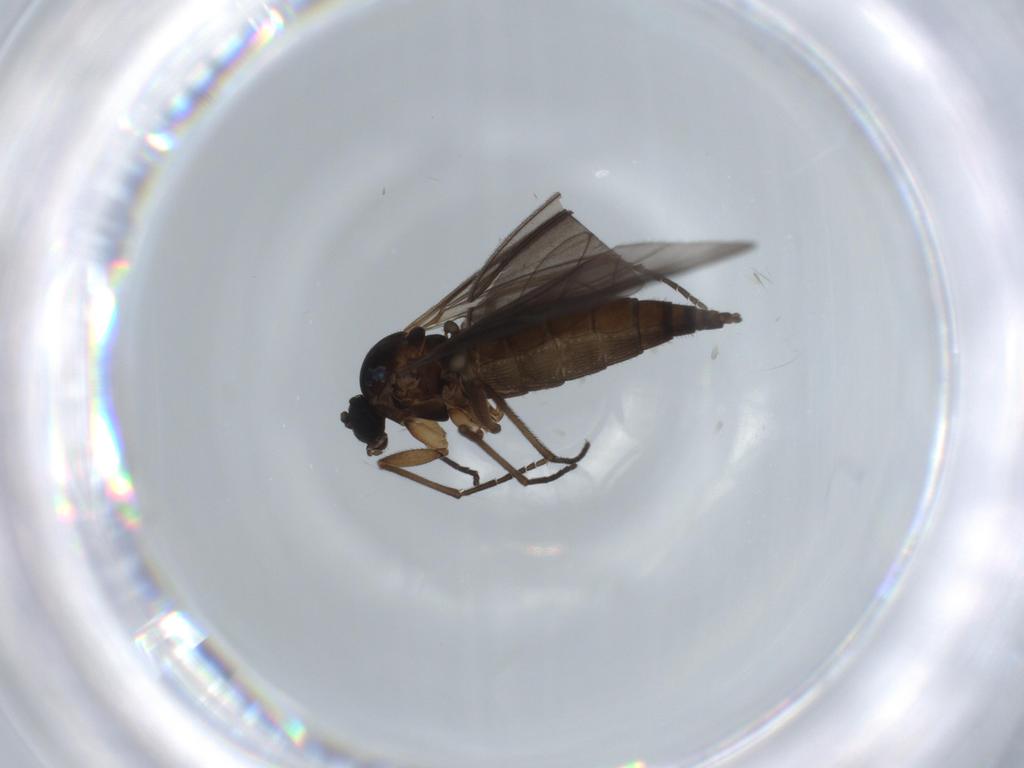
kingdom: Animalia
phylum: Arthropoda
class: Insecta
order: Diptera
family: Sciaridae
